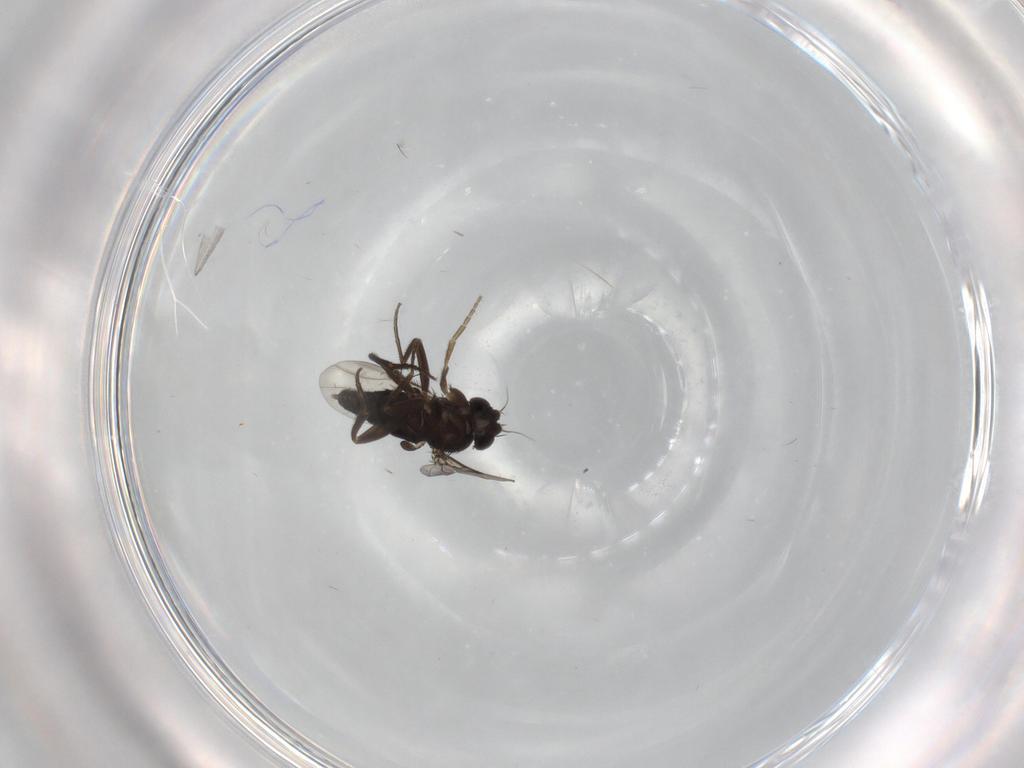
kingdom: Animalia
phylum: Arthropoda
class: Insecta
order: Diptera
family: Phoridae
